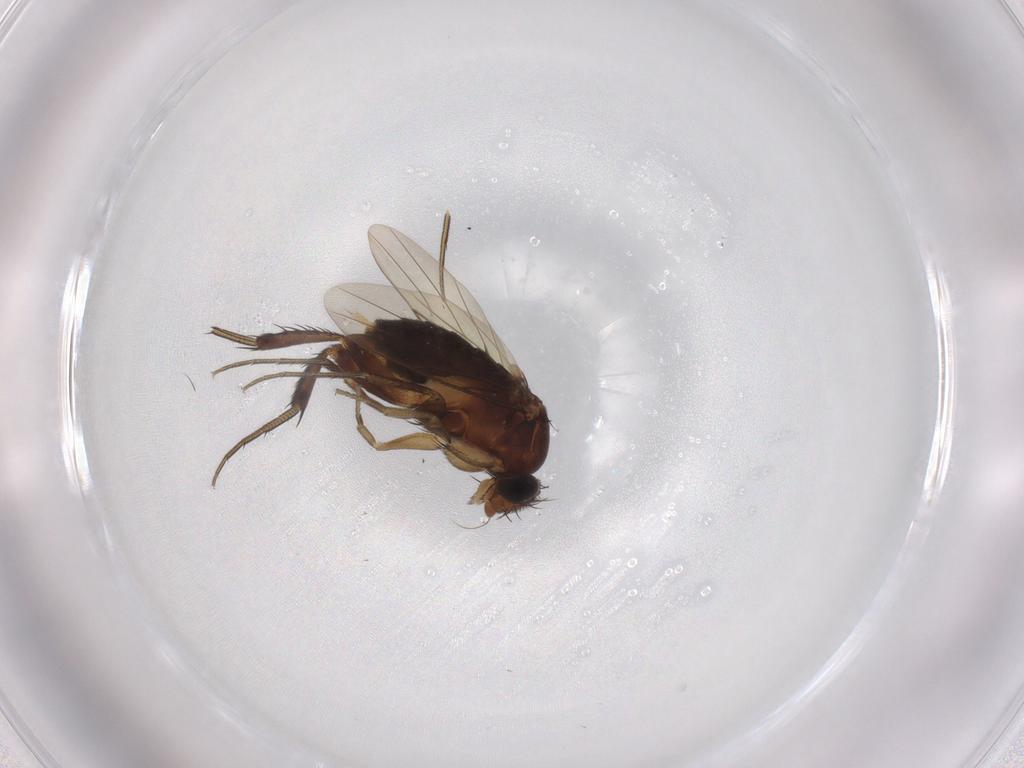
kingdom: Animalia
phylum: Arthropoda
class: Insecta
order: Diptera
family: Phoridae
